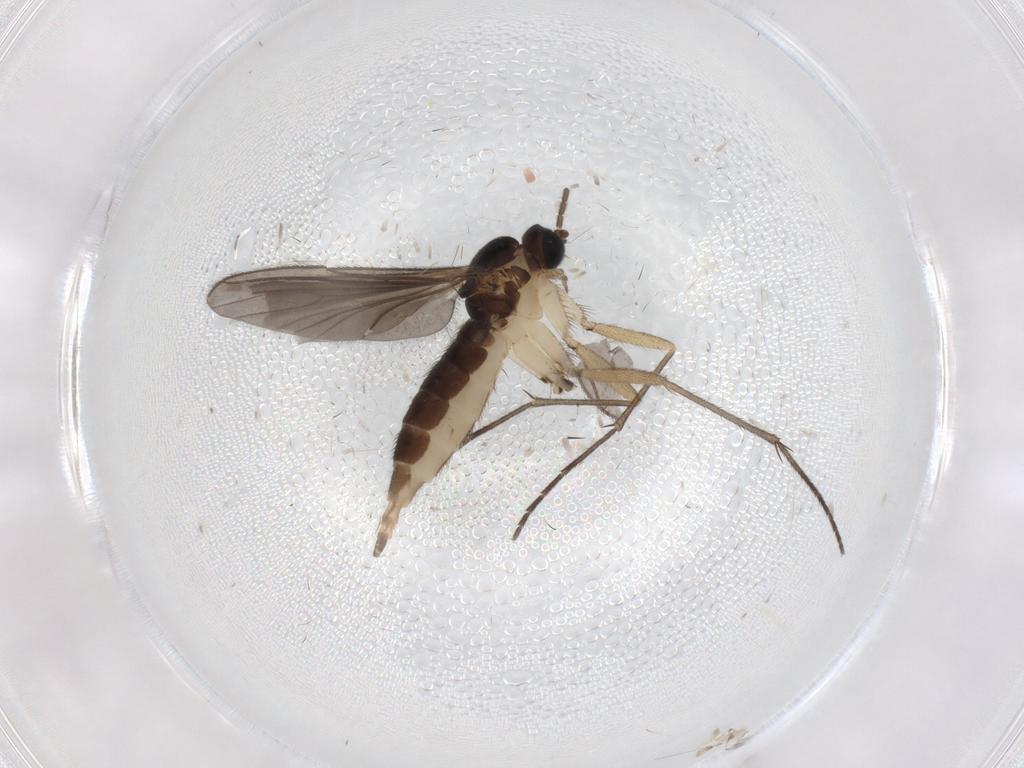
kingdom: Animalia
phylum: Arthropoda
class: Insecta
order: Diptera
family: Sciaridae
